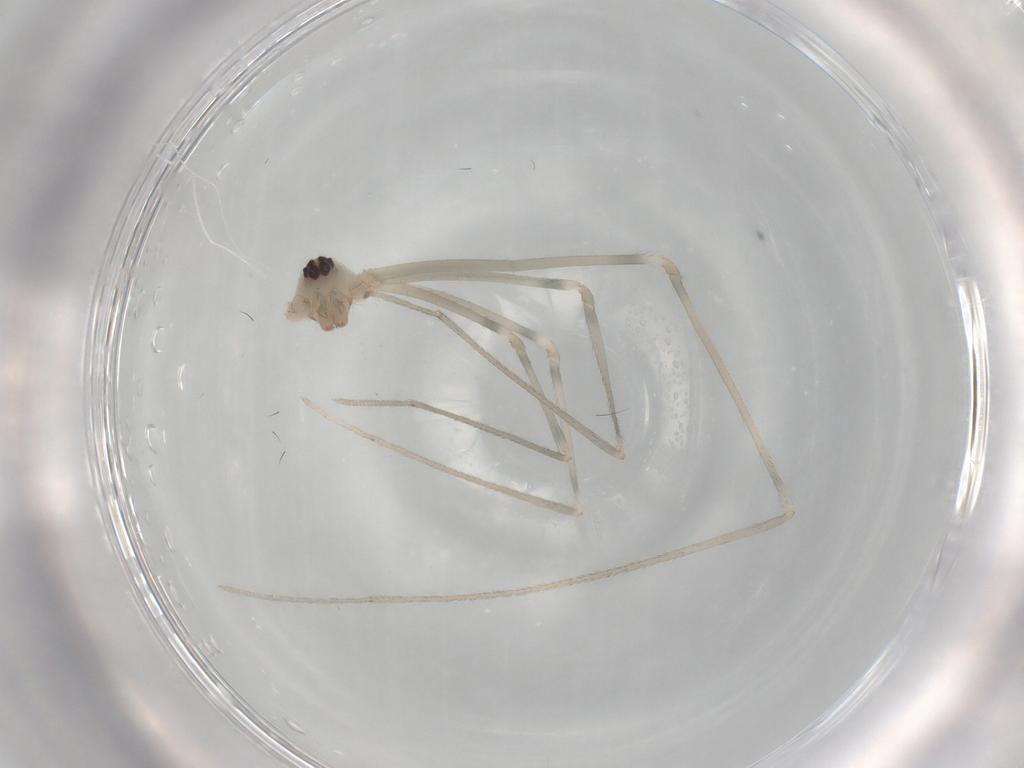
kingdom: Animalia
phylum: Arthropoda
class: Arachnida
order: Araneae
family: Pholcidae
